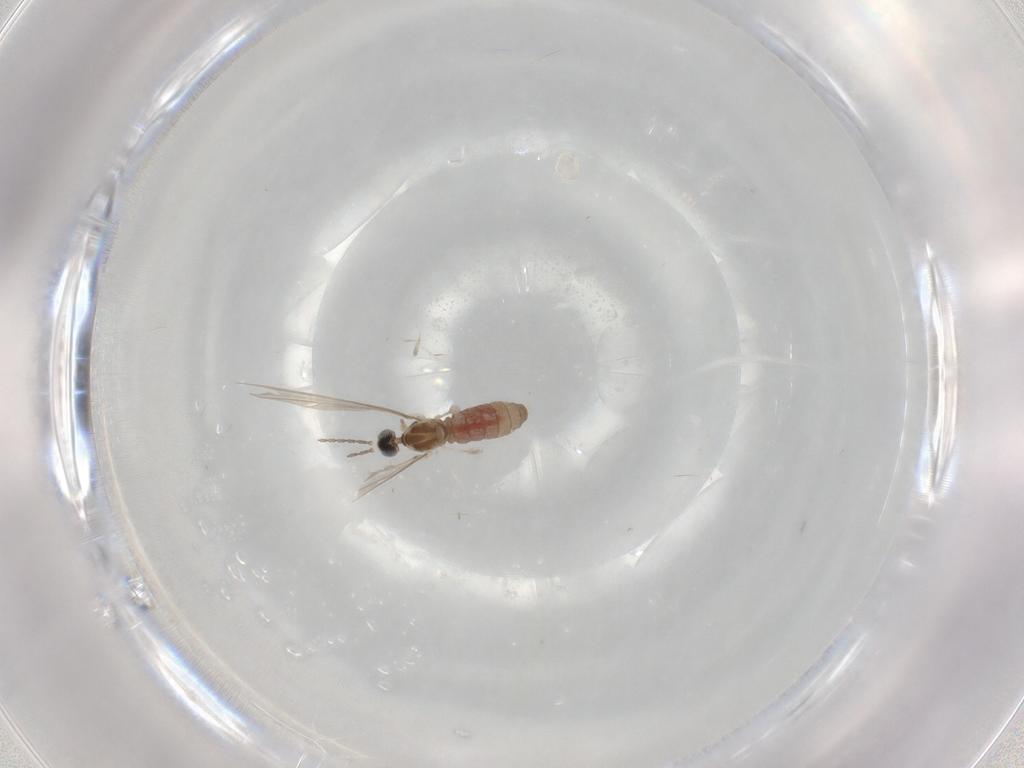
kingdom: Animalia
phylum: Arthropoda
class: Insecta
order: Diptera
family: Cecidomyiidae
